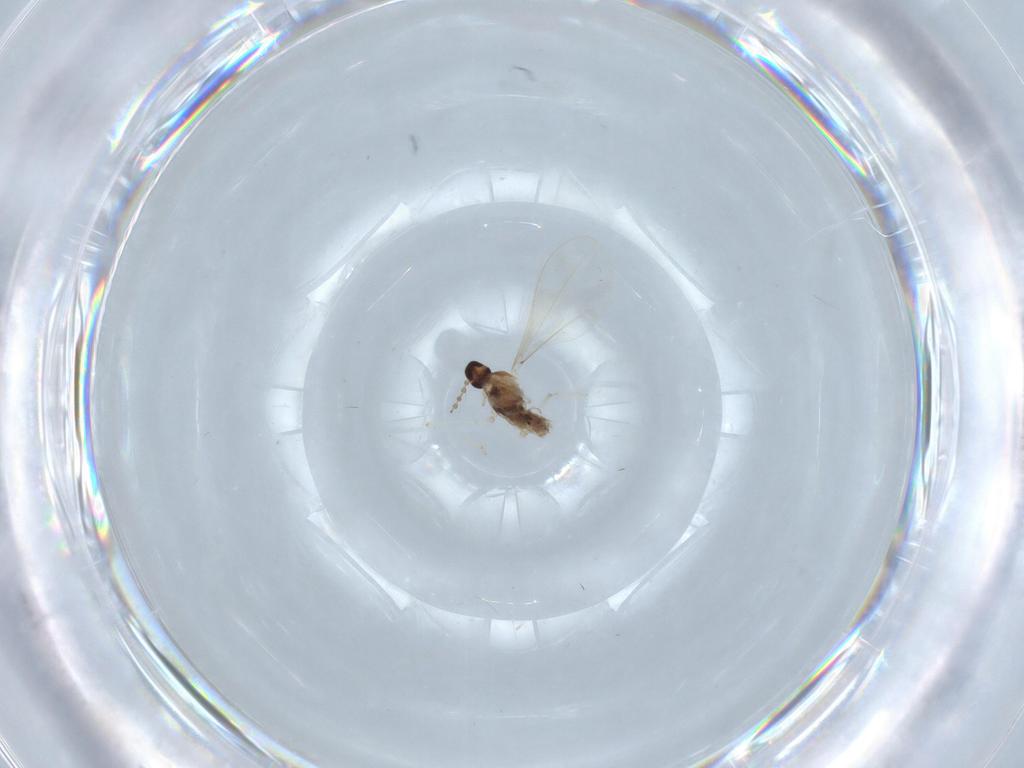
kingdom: Animalia
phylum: Arthropoda
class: Insecta
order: Diptera
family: Cecidomyiidae
